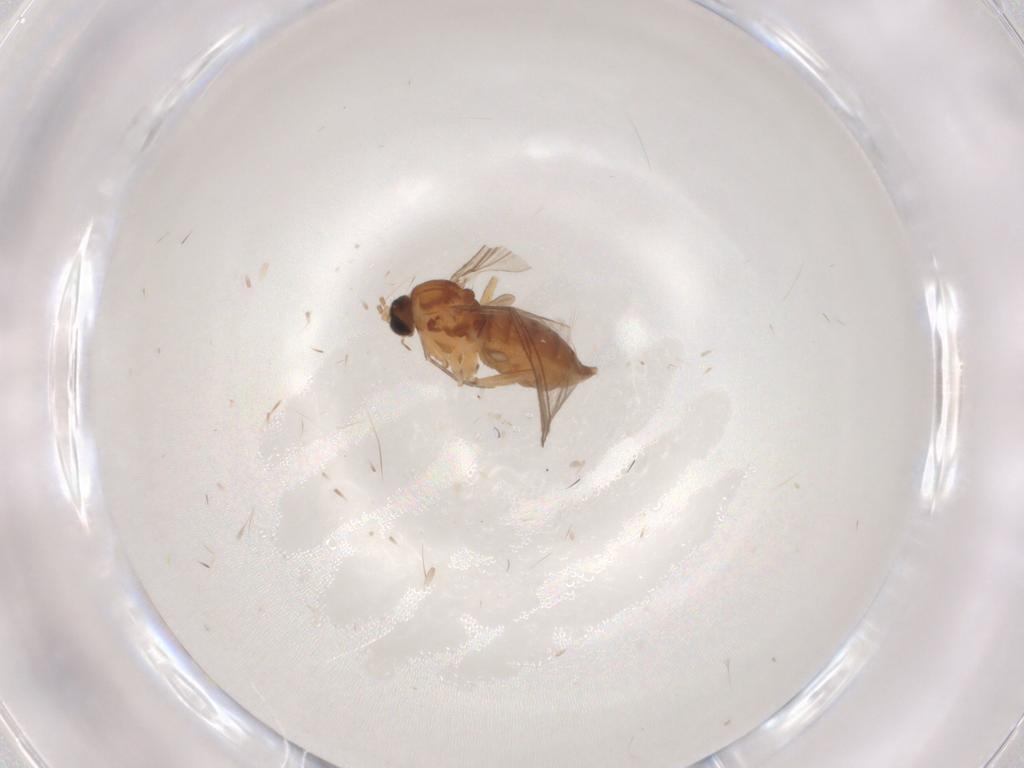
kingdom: Animalia
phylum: Arthropoda
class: Insecta
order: Diptera
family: Sciaridae
